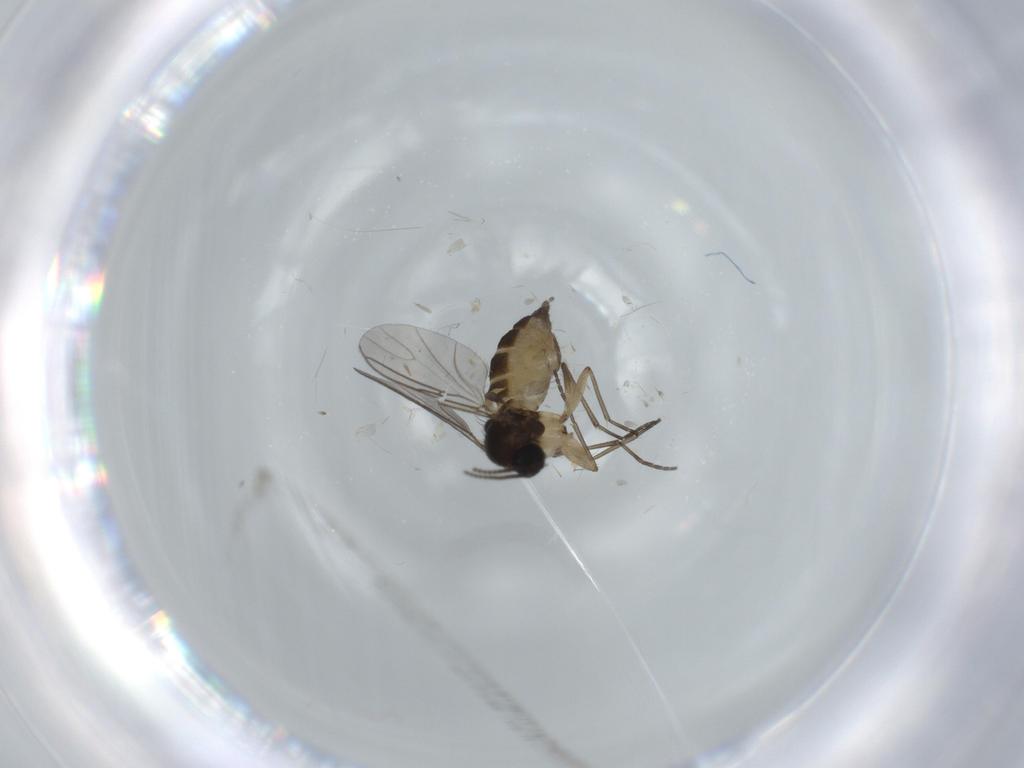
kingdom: Animalia
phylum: Arthropoda
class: Insecta
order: Diptera
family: Sciaridae
